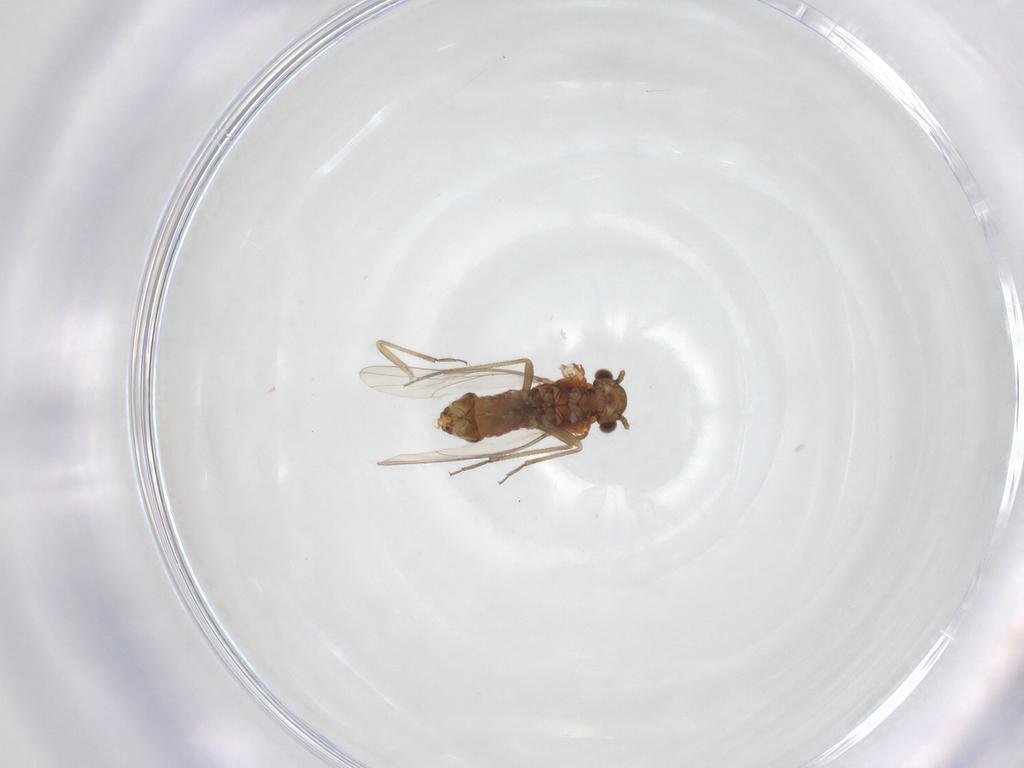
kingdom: Animalia
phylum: Arthropoda
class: Insecta
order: Psocodea
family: Lachesillidae
